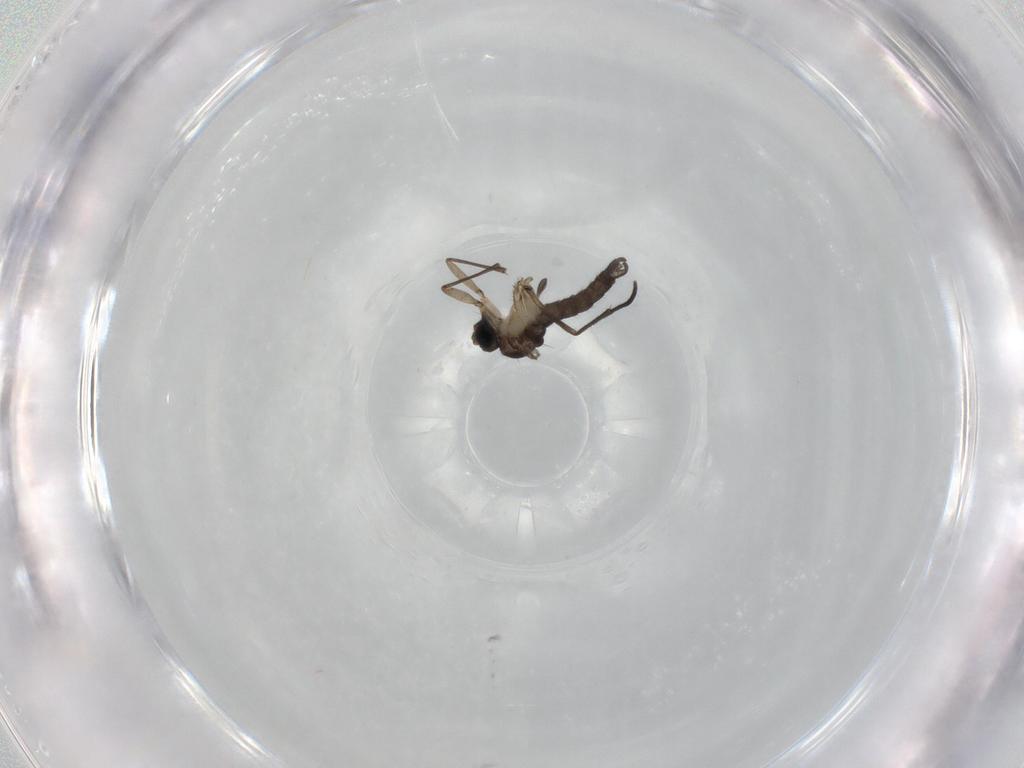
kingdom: Animalia
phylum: Arthropoda
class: Insecta
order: Diptera
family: Sciaridae
